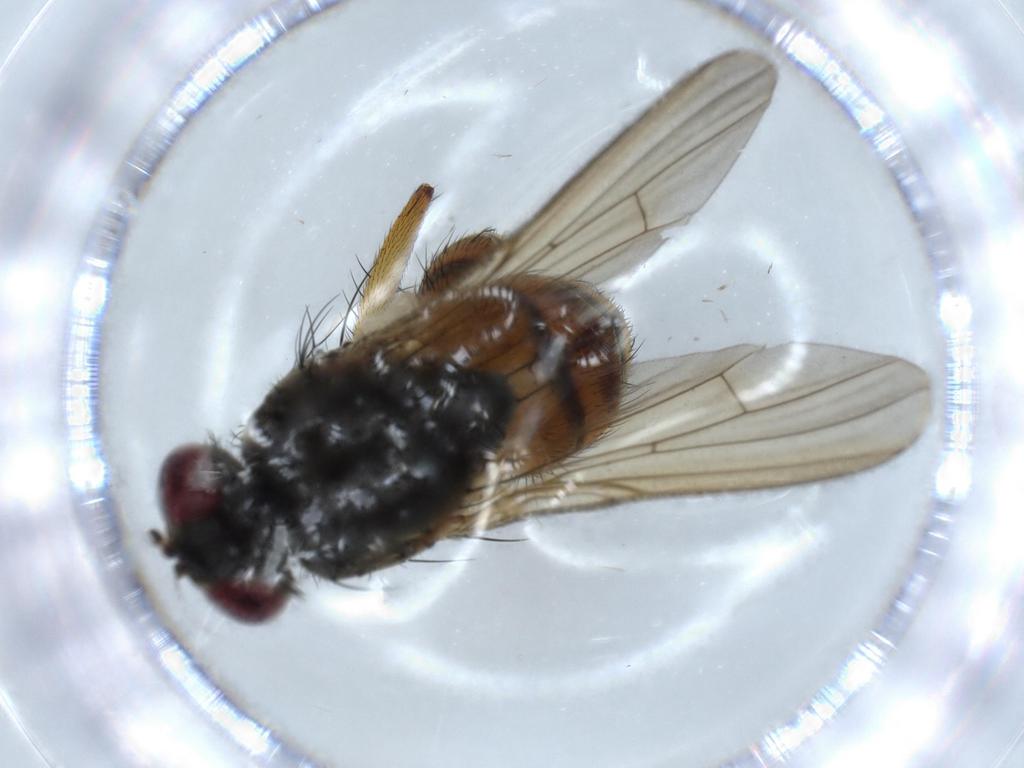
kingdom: Animalia
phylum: Arthropoda
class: Insecta
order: Diptera
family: Muscidae
